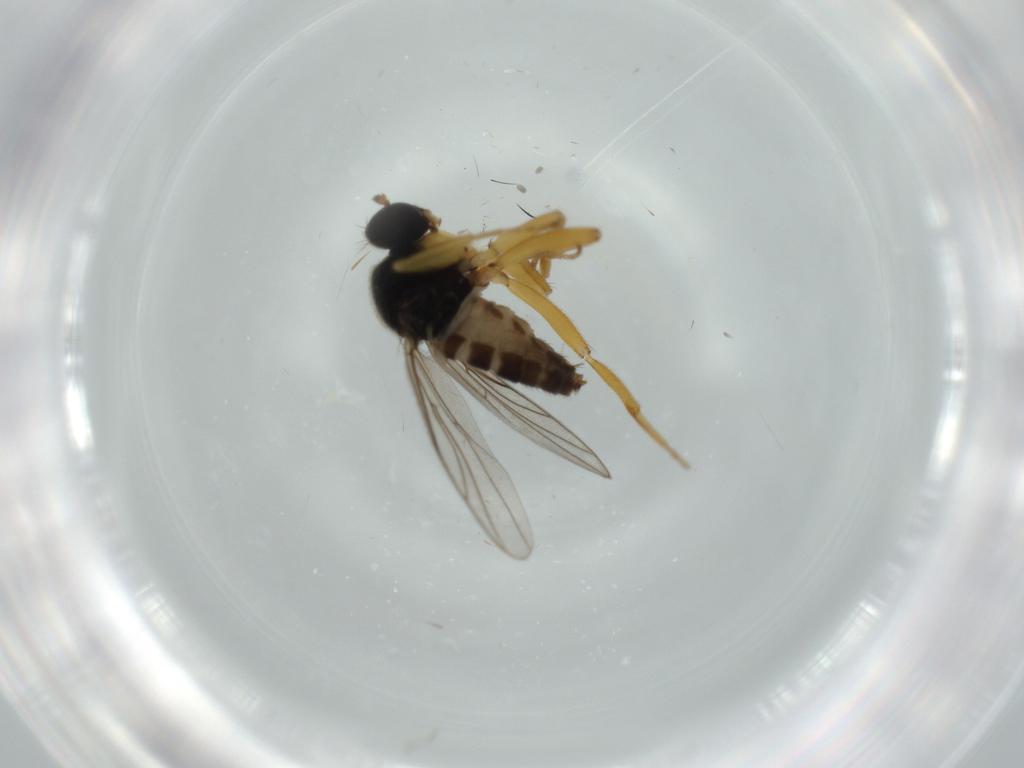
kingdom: Animalia
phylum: Arthropoda
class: Insecta
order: Diptera
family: Hybotidae
